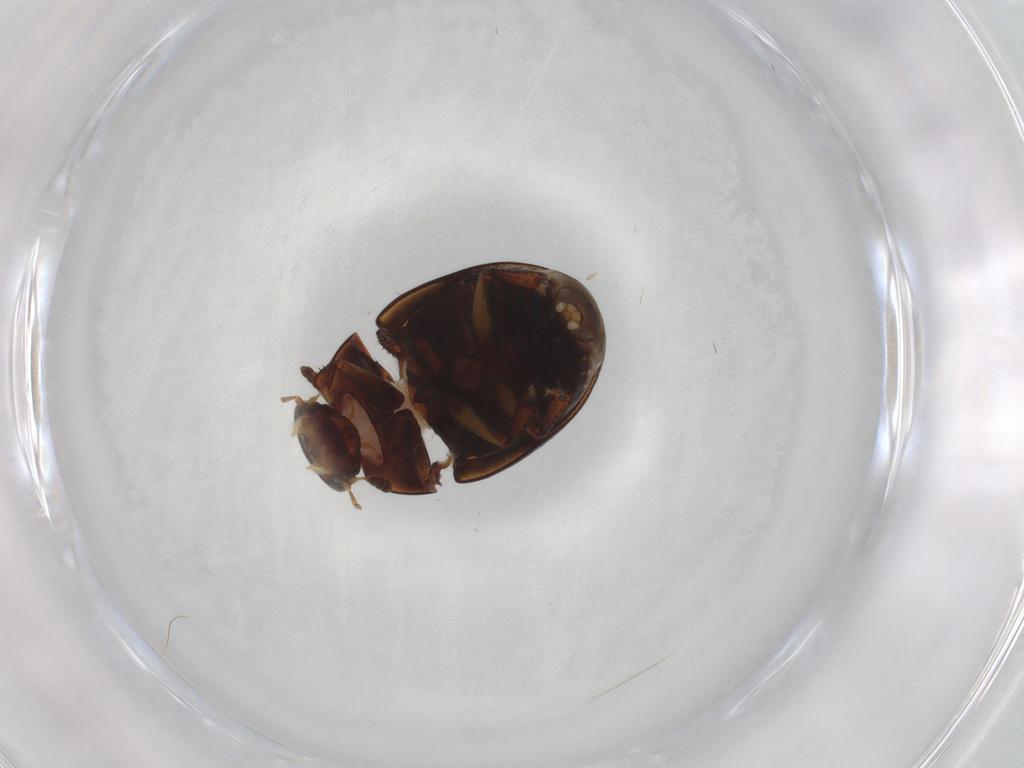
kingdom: Animalia
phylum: Arthropoda
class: Insecta
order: Coleoptera
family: Hydrophilidae
